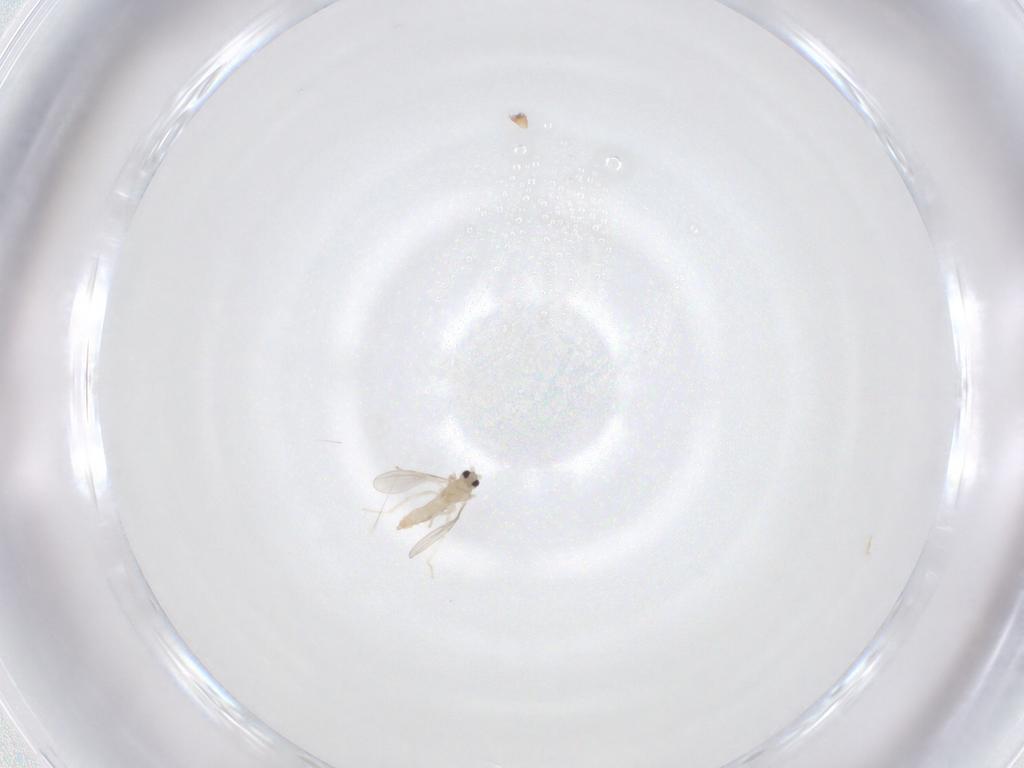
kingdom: Animalia
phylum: Arthropoda
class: Insecta
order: Diptera
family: Cecidomyiidae
